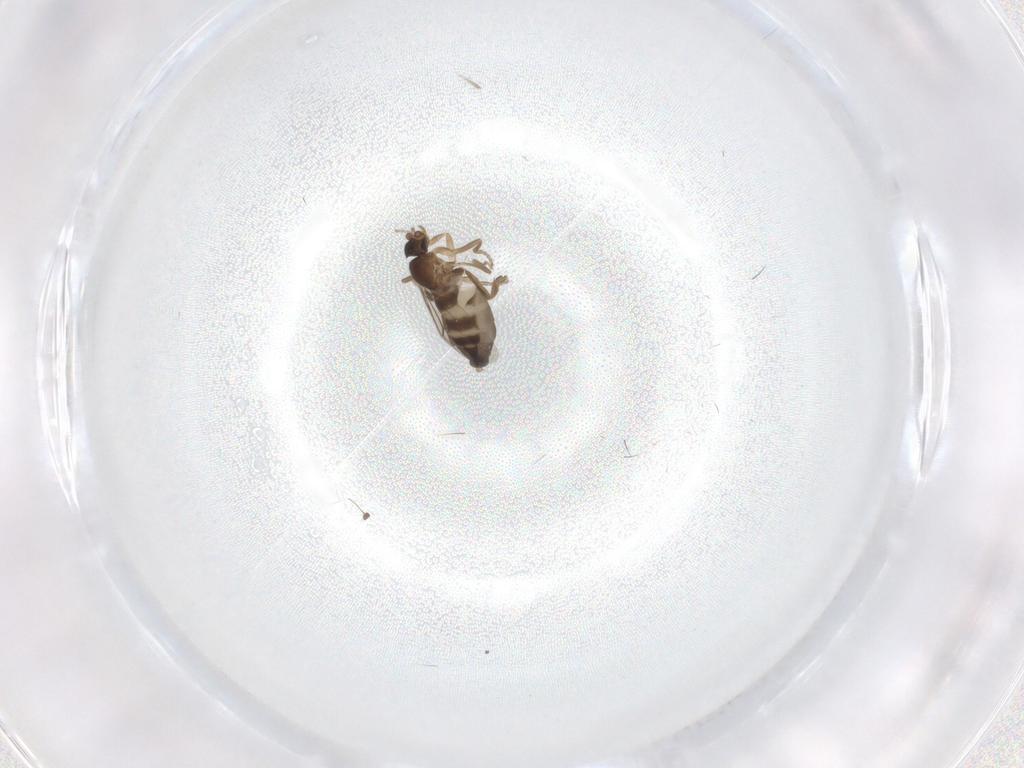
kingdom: Animalia
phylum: Arthropoda
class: Insecta
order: Diptera
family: Phoridae
